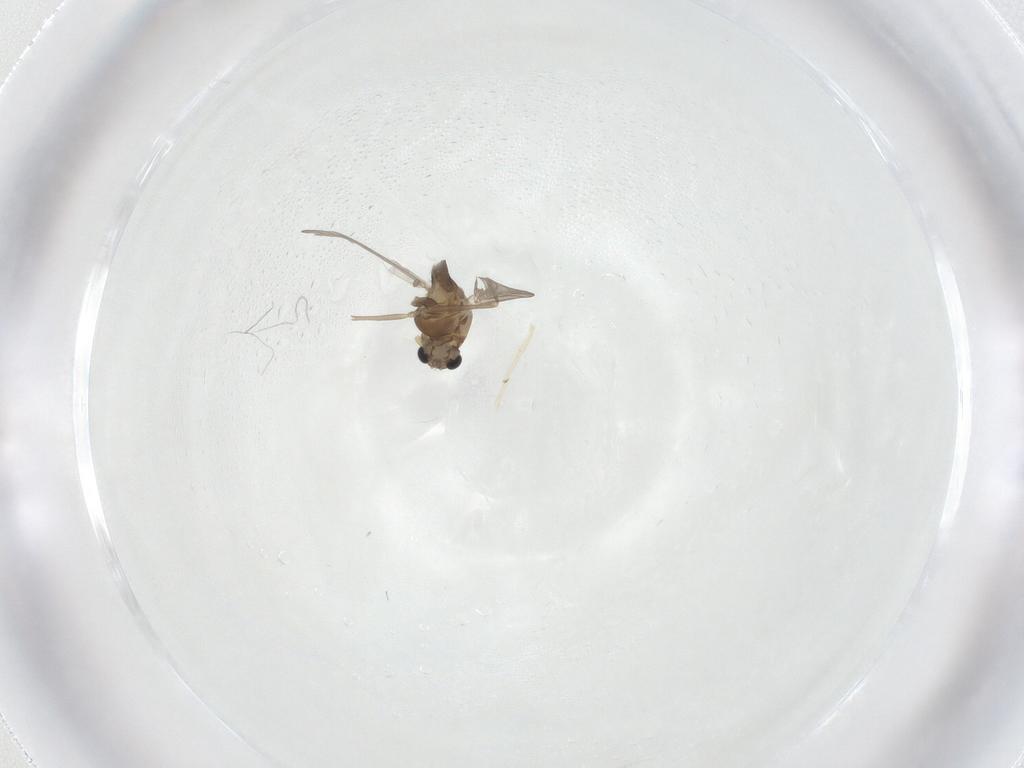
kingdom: Animalia
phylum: Arthropoda
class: Insecta
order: Diptera
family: Chironomidae
